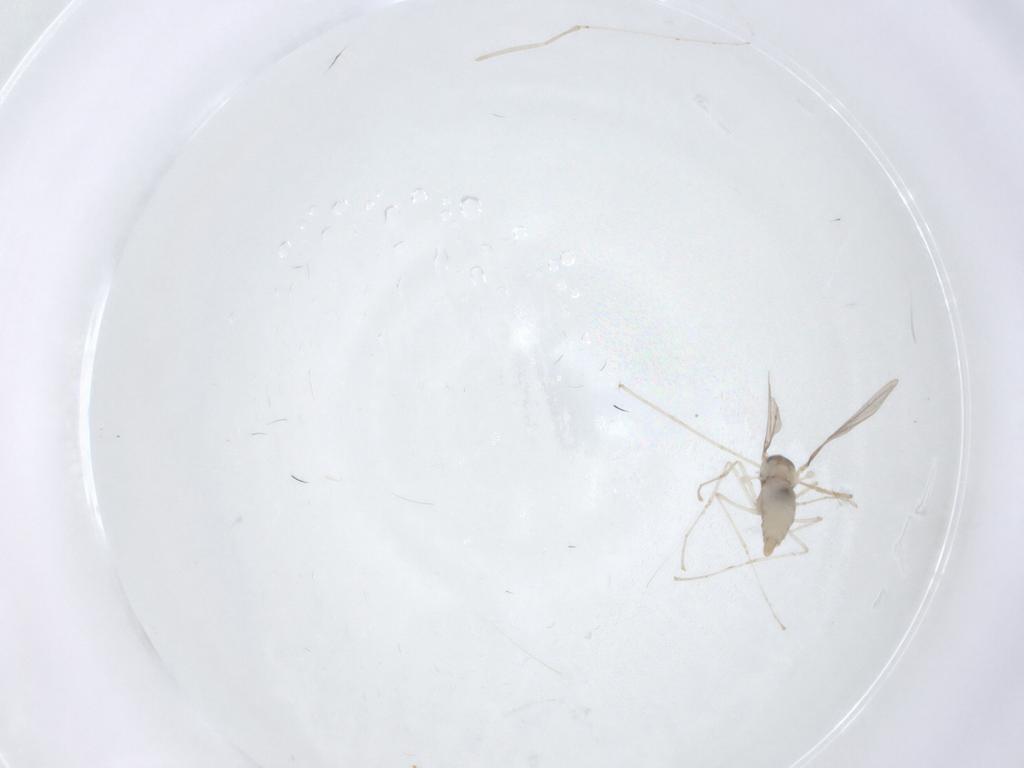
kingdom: Animalia
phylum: Arthropoda
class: Insecta
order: Diptera
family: Cecidomyiidae
